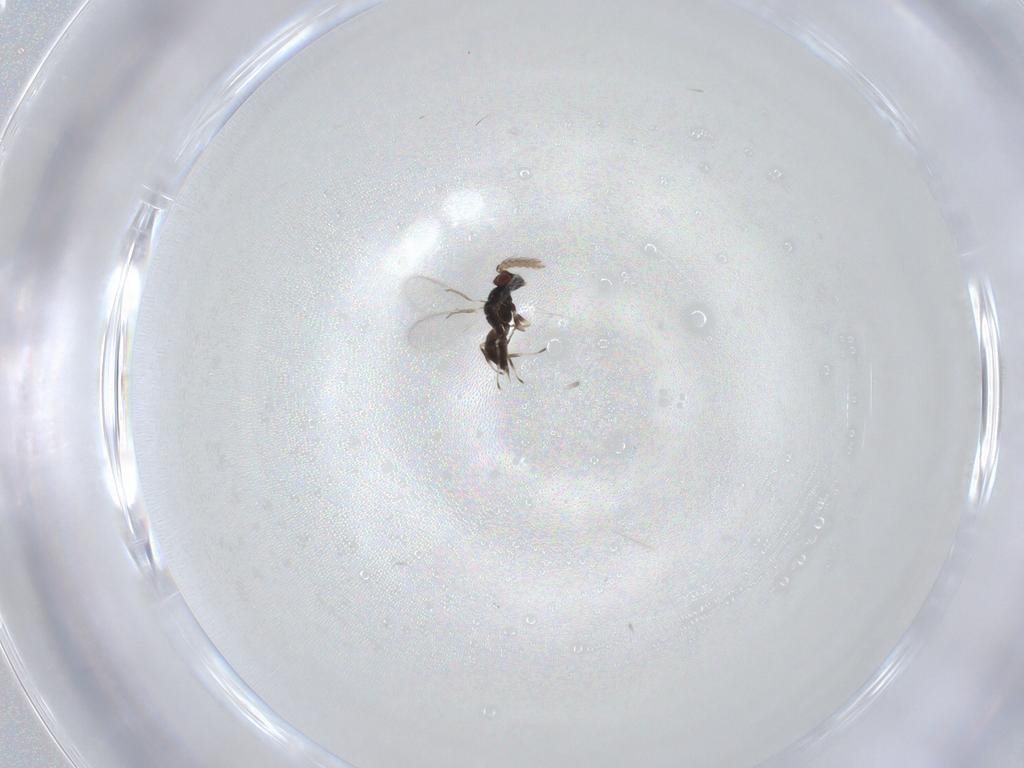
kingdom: Animalia
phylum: Arthropoda
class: Insecta
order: Hymenoptera
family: Eulophidae
